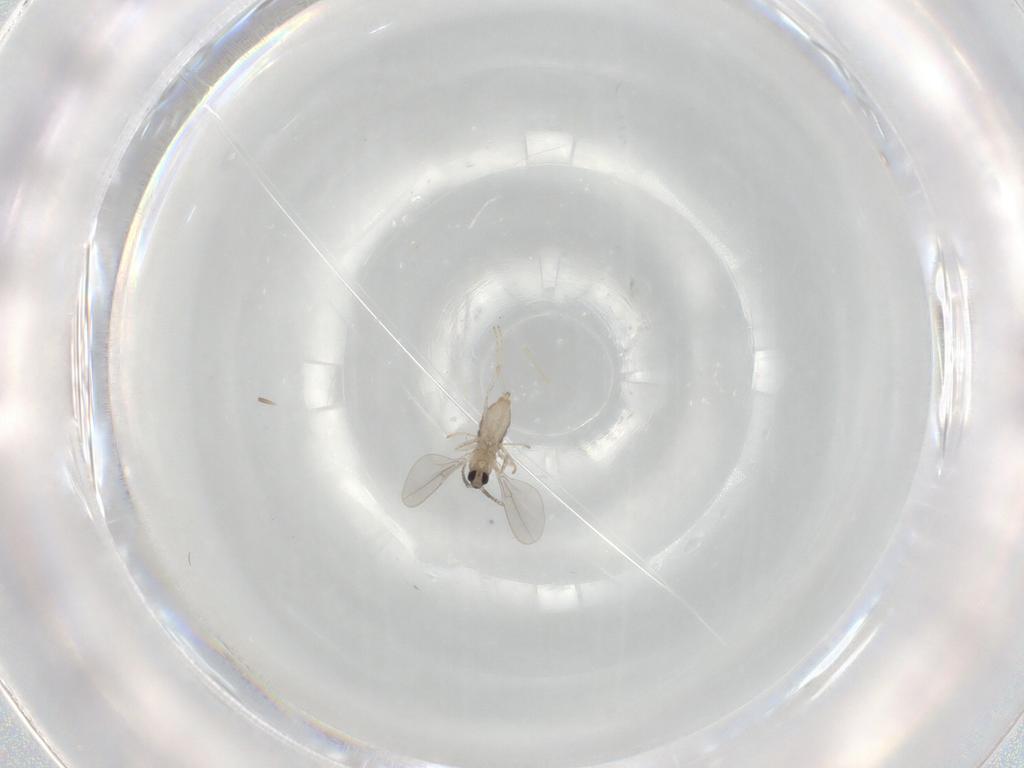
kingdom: Animalia
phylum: Arthropoda
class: Insecta
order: Diptera
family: Cecidomyiidae
